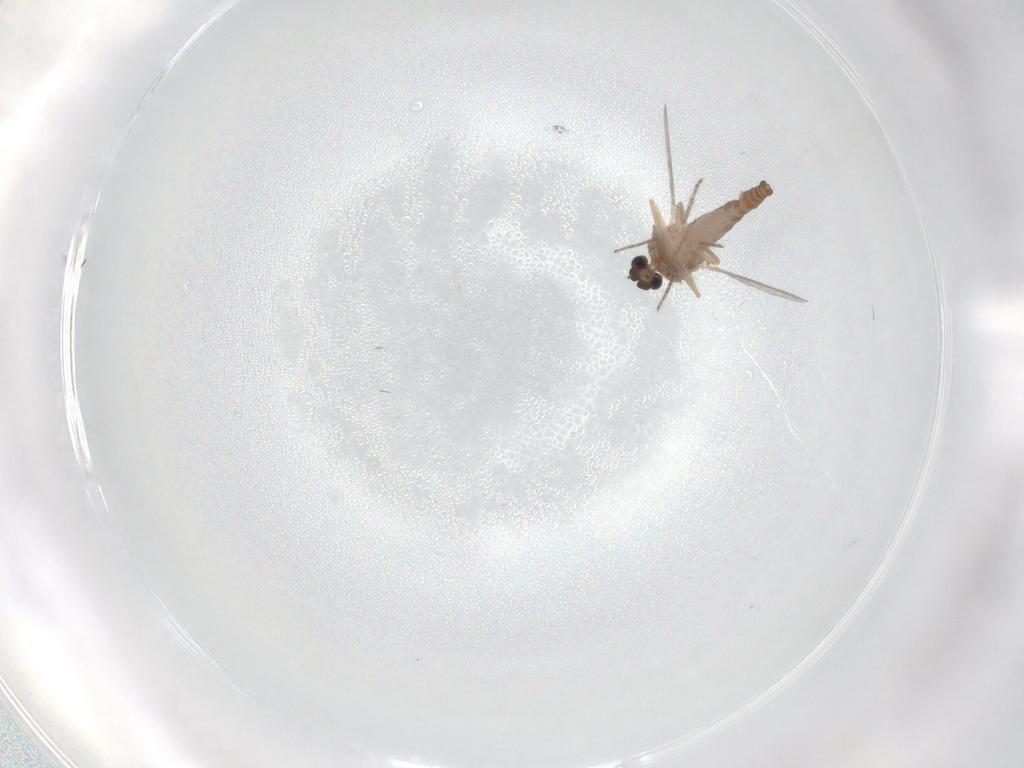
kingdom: Animalia
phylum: Arthropoda
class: Insecta
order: Diptera
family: Ceratopogonidae
